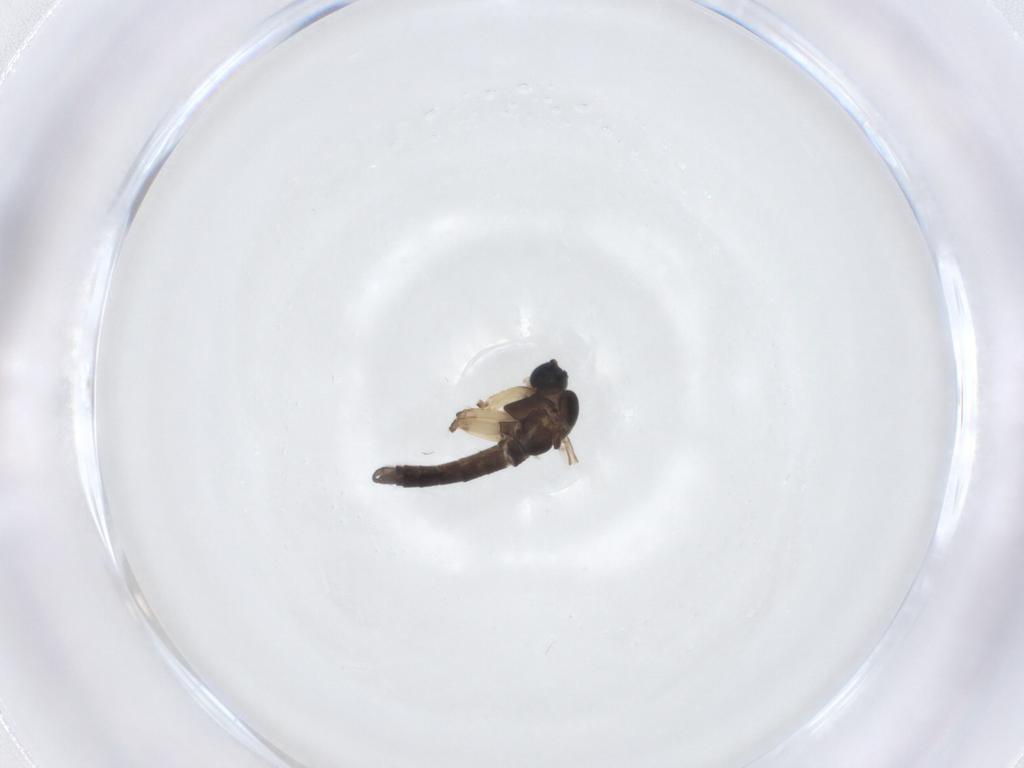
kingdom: Animalia
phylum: Arthropoda
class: Insecta
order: Diptera
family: Sciaridae
